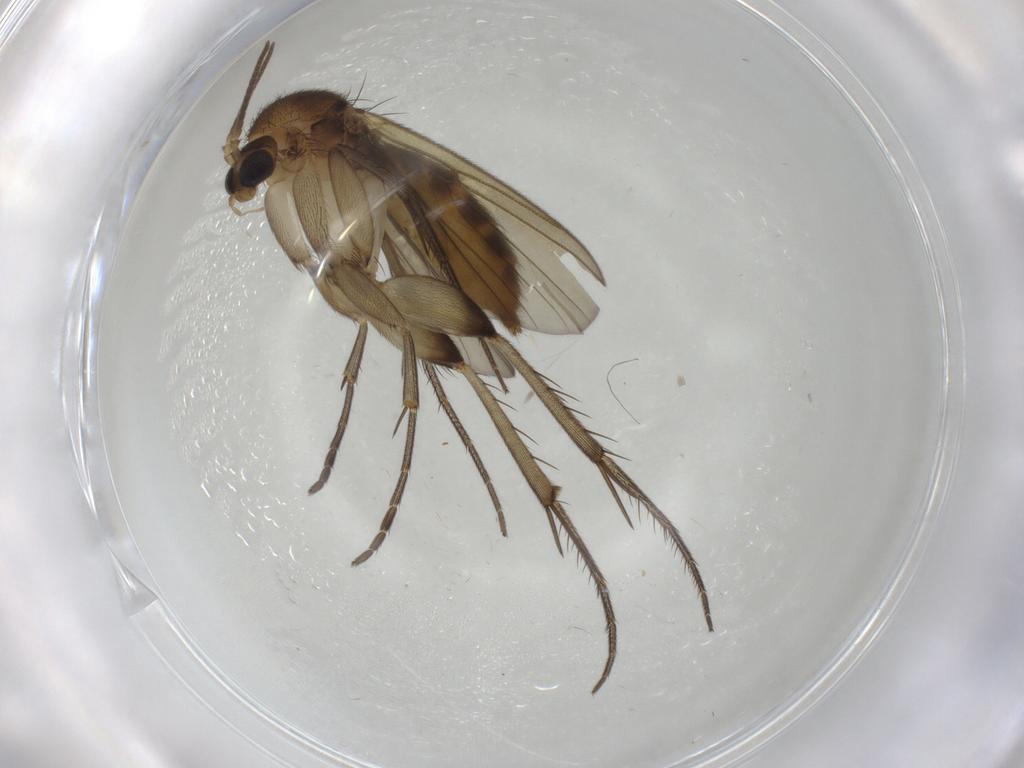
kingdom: Animalia
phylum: Arthropoda
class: Insecta
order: Diptera
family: Mycetophilidae
